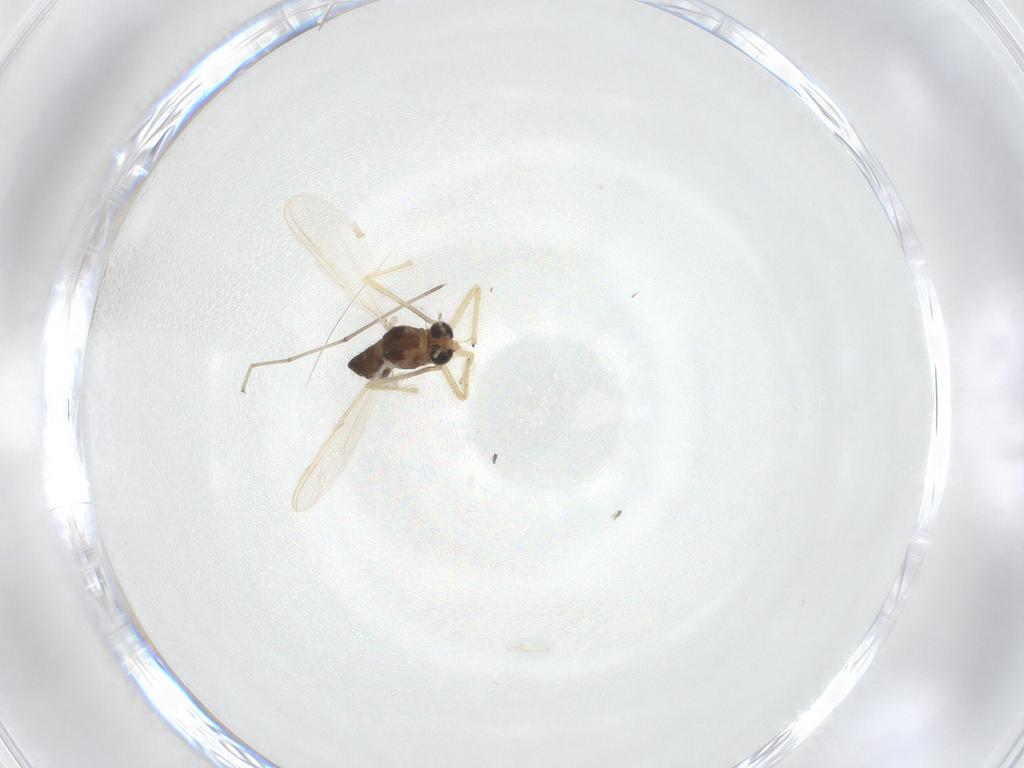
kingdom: Animalia
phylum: Arthropoda
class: Insecta
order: Diptera
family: Cecidomyiidae
